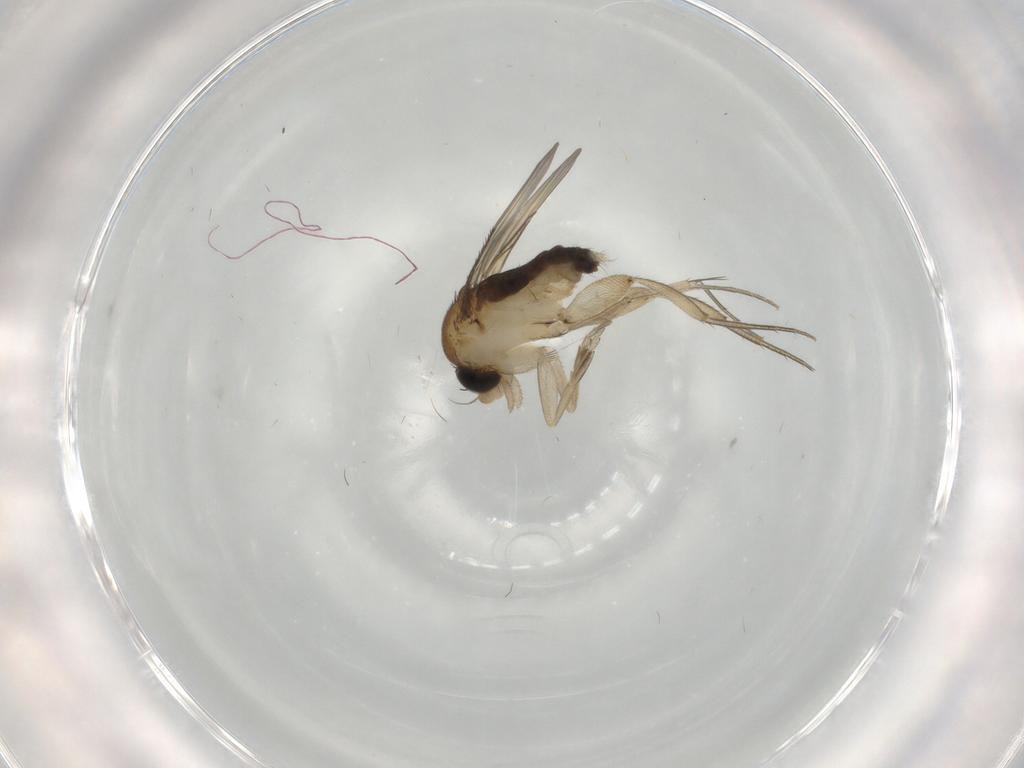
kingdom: Animalia
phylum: Arthropoda
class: Insecta
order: Diptera
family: Phoridae
